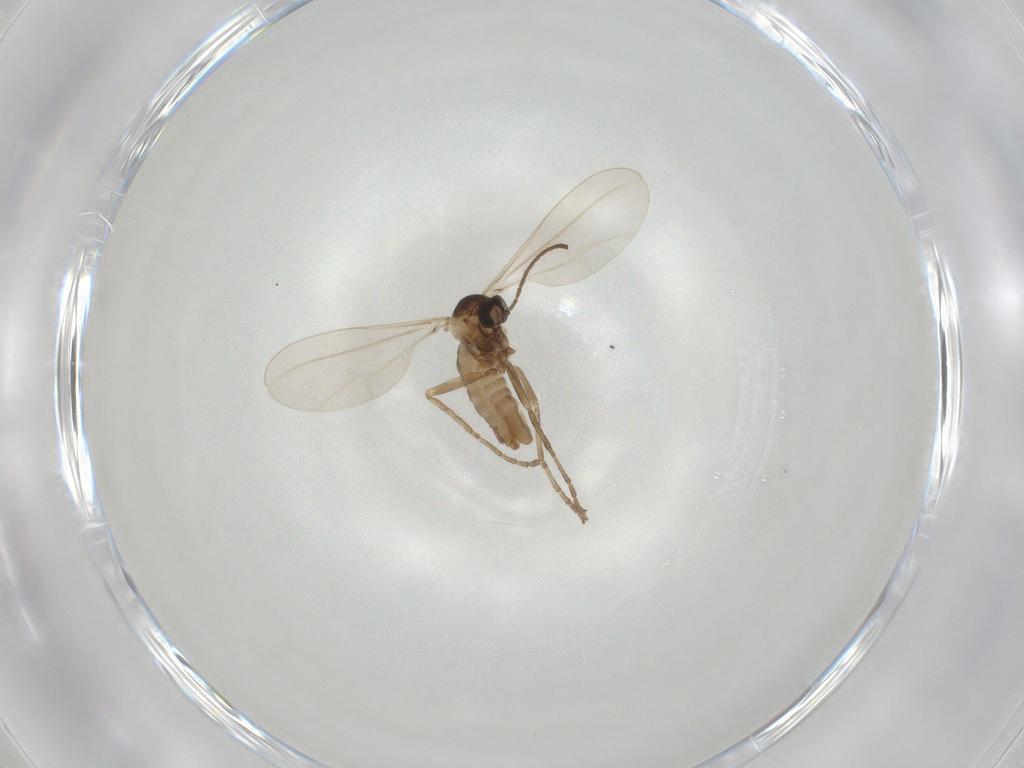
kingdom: Animalia
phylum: Arthropoda
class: Insecta
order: Diptera
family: Cecidomyiidae
